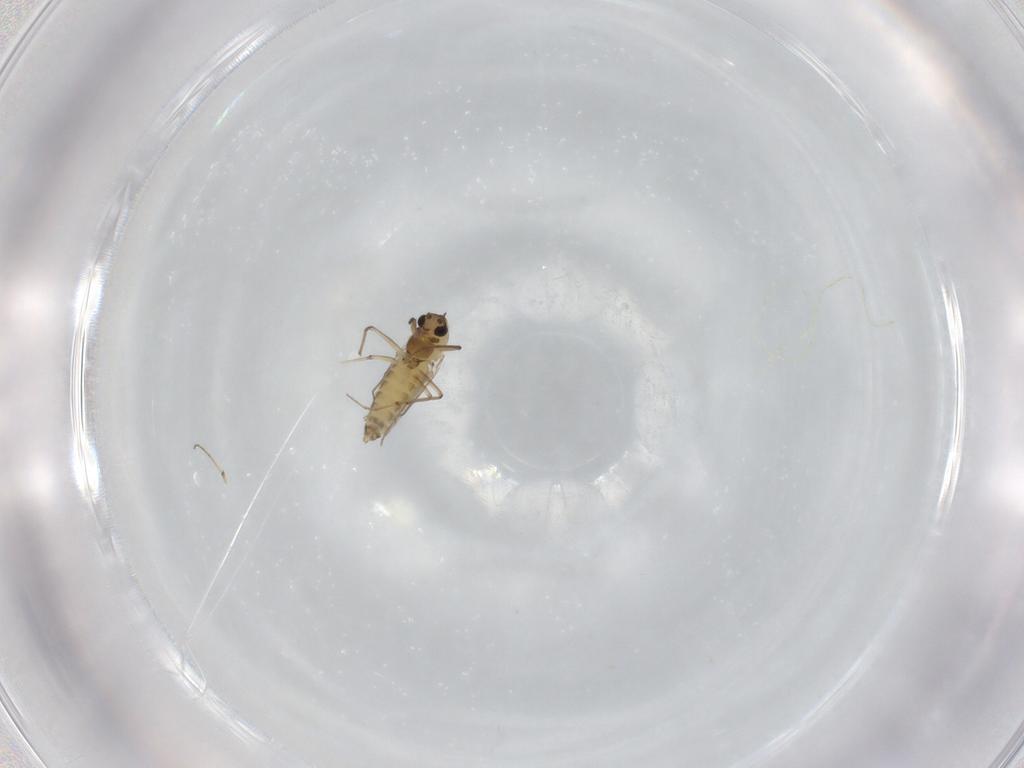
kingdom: Animalia
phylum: Arthropoda
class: Insecta
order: Diptera
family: Chironomidae
